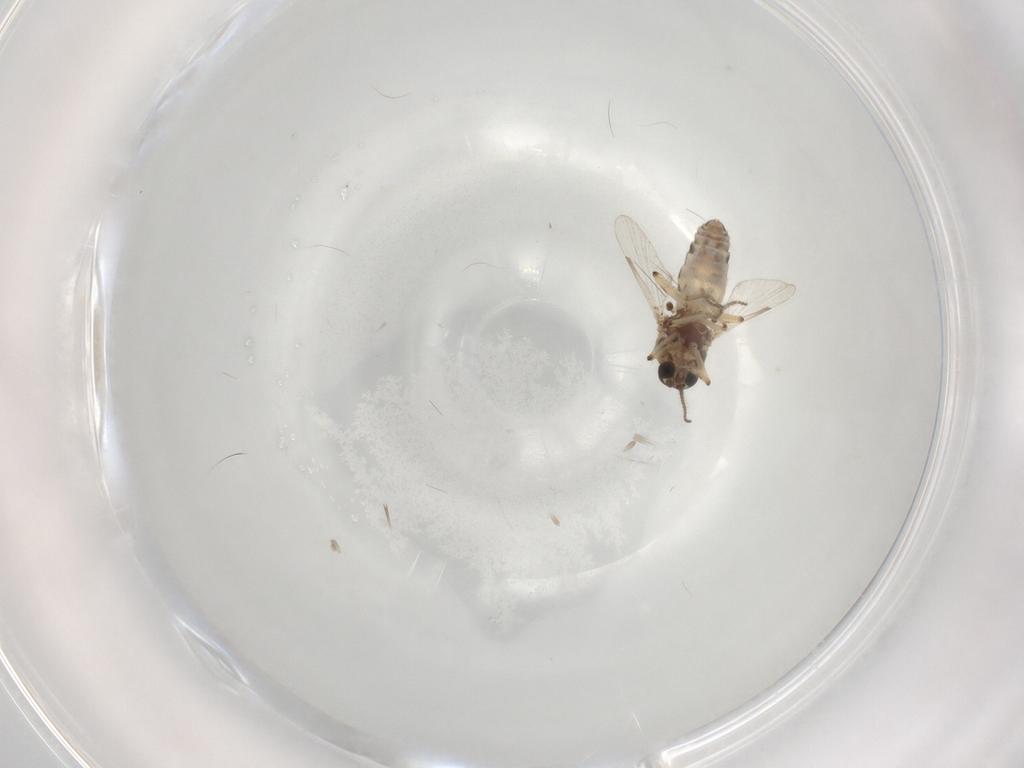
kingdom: Animalia
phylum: Arthropoda
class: Insecta
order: Diptera
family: Ceratopogonidae
